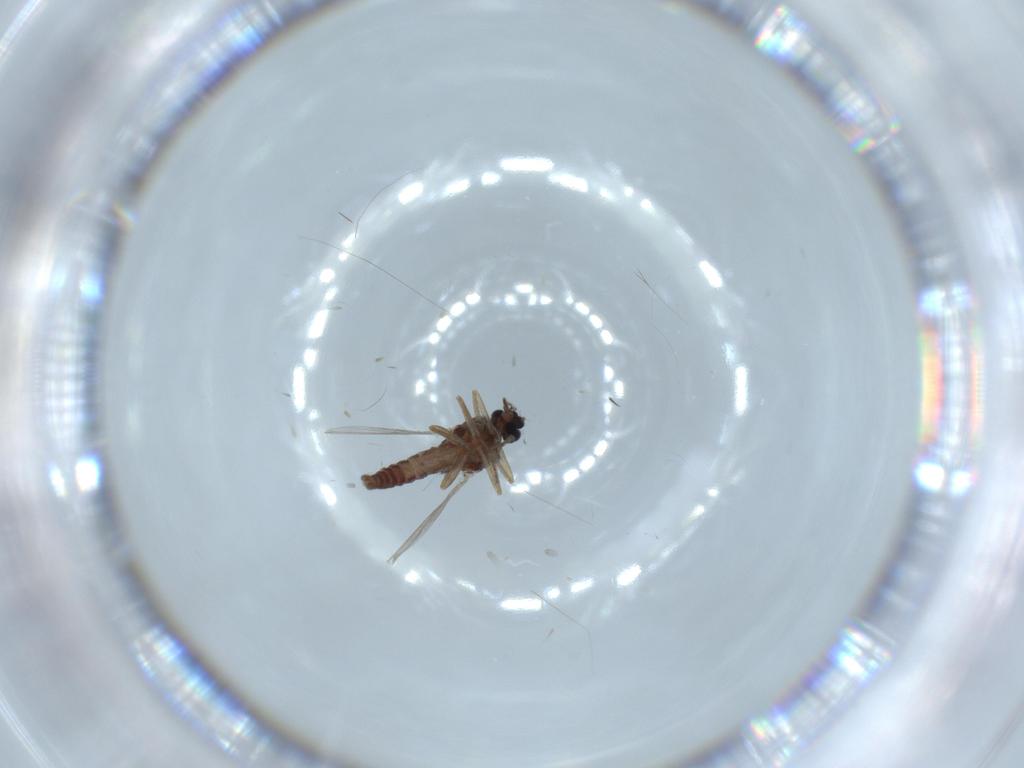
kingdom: Animalia
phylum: Arthropoda
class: Insecta
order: Diptera
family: Ceratopogonidae
